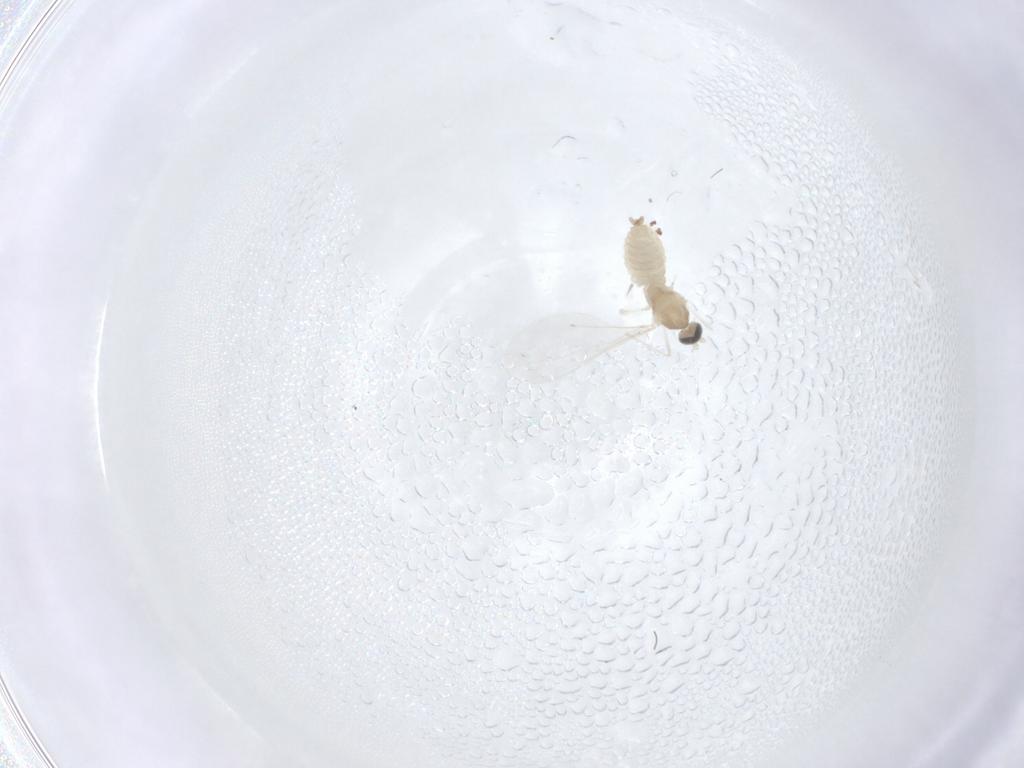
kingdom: Animalia
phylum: Arthropoda
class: Insecta
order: Diptera
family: Cecidomyiidae
